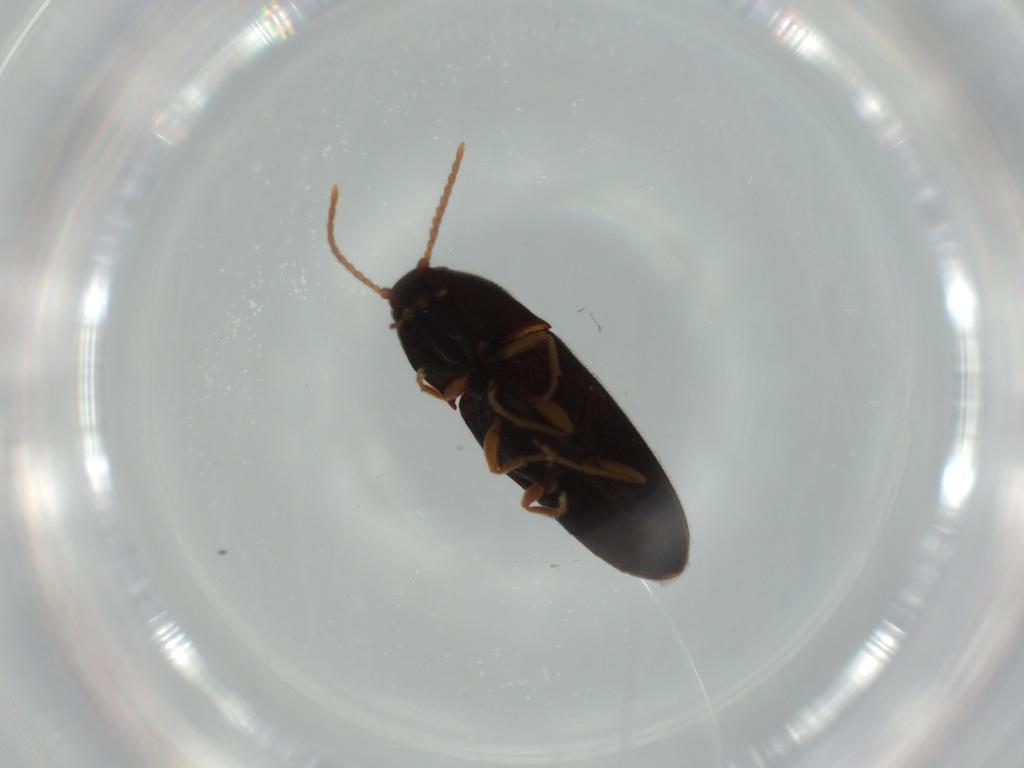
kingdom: Animalia
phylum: Arthropoda
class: Insecta
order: Coleoptera
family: Elateridae
